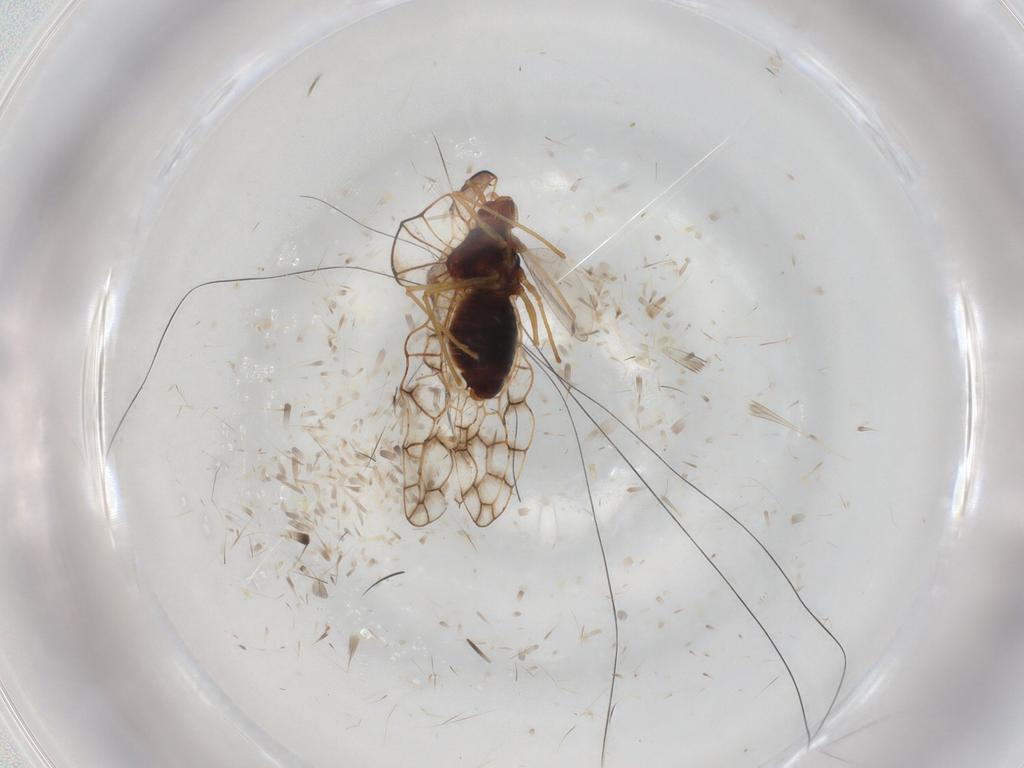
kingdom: Animalia
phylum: Arthropoda
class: Insecta
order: Hemiptera
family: Tingidae
